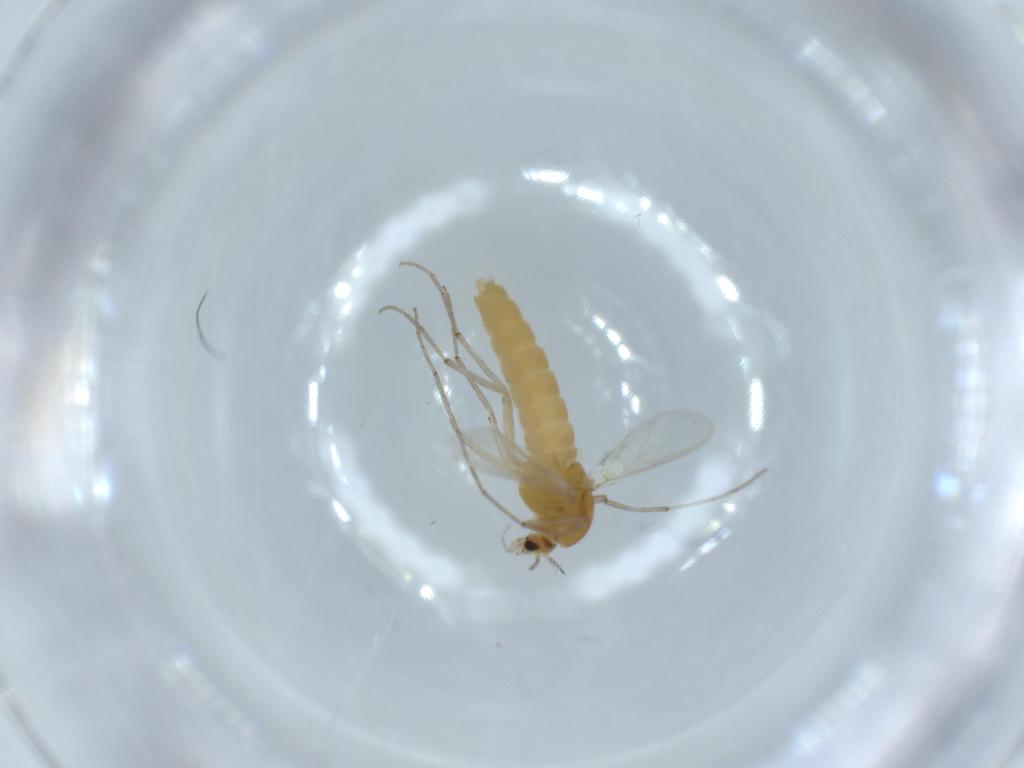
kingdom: Animalia
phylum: Arthropoda
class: Insecta
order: Diptera
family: Chironomidae
